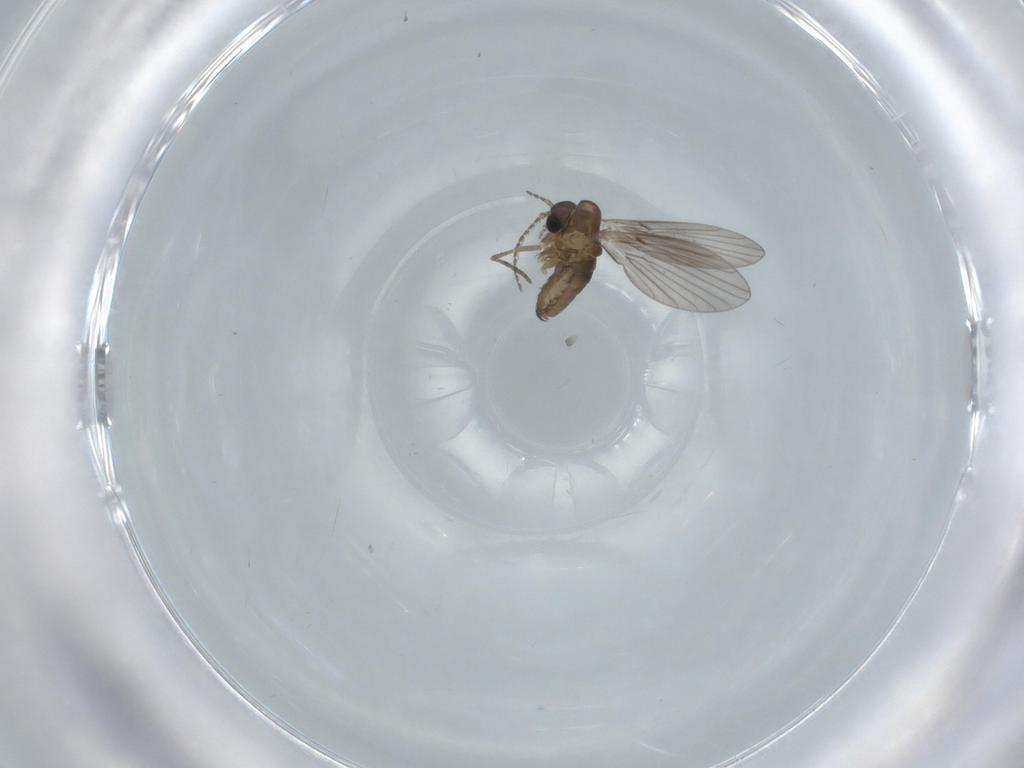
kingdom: Animalia
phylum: Arthropoda
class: Insecta
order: Diptera
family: Psychodidae
